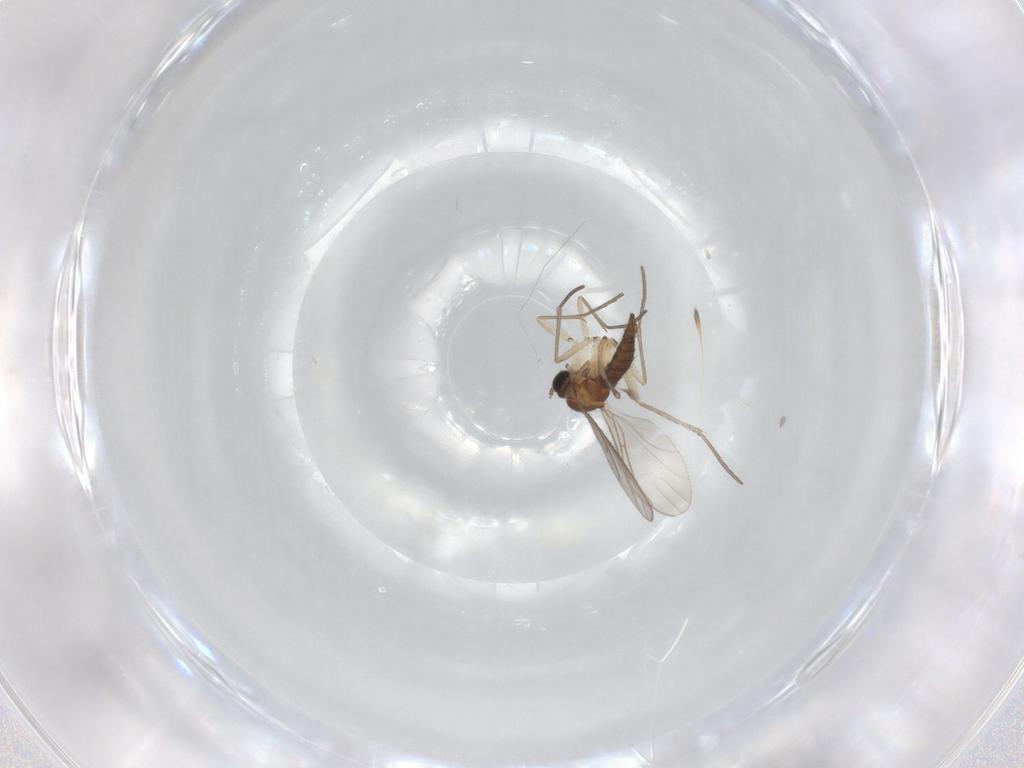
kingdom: Animalia
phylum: Arthropoda
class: Insecta
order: Diptera
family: Sciaridae
